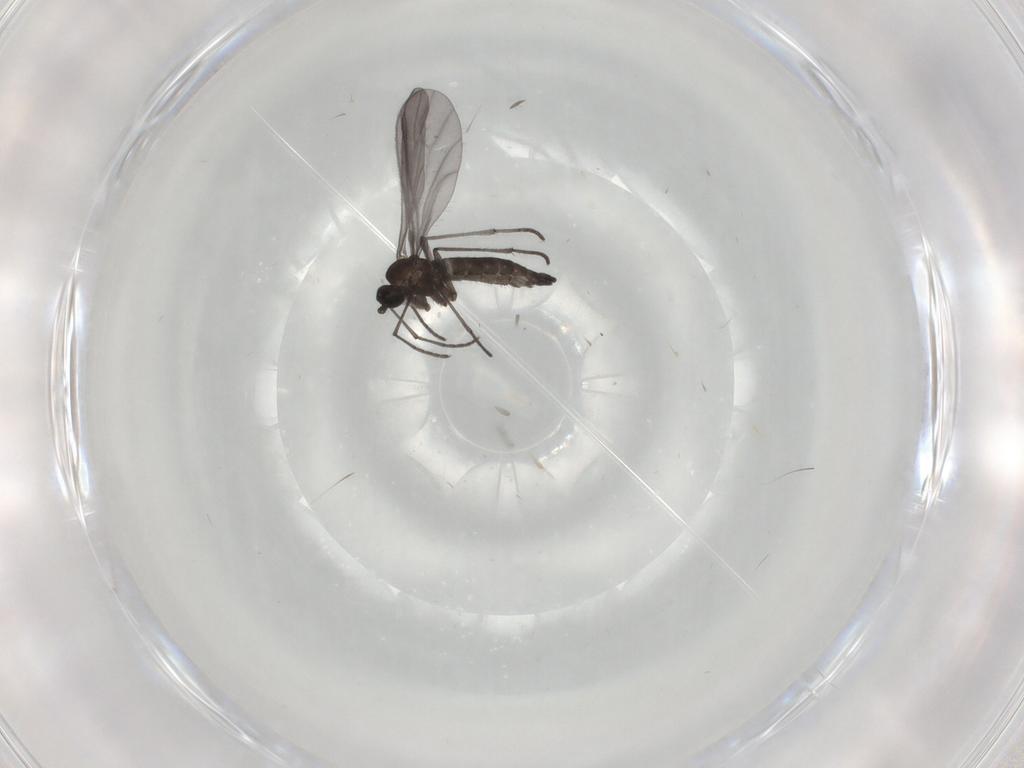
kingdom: Animalia
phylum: Arthropoda
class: Insecta
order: Diptera
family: Sciaridae
